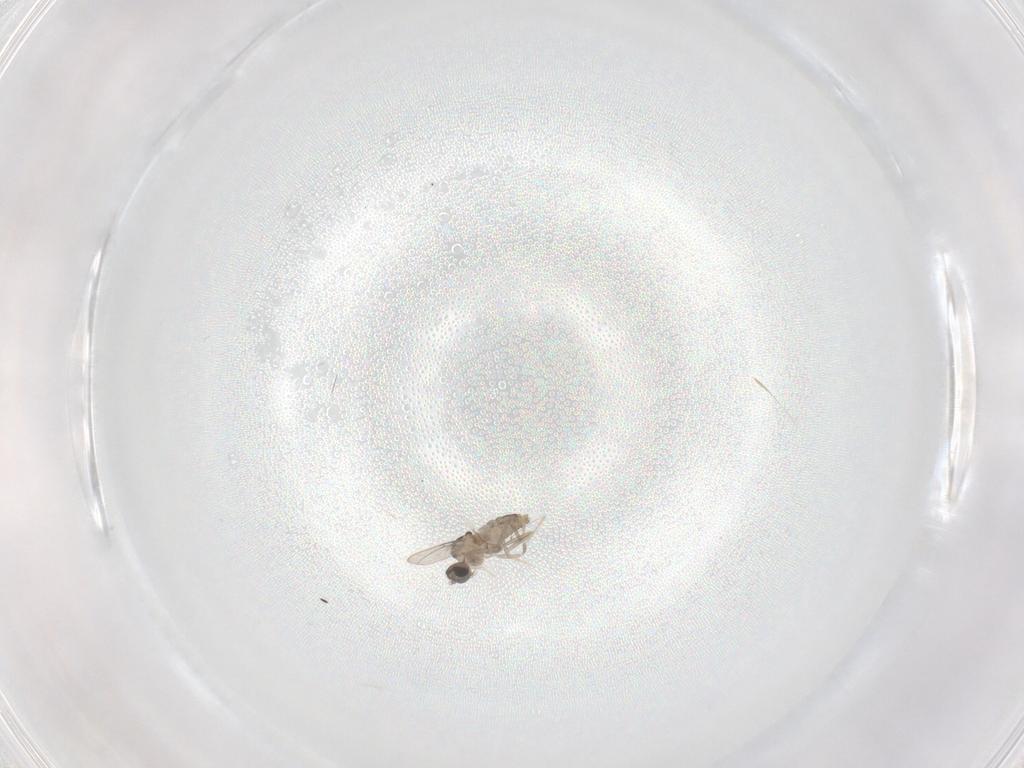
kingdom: Animalia
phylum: Arthropoda
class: Insecta
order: Diptera
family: Cecidomyiidae
